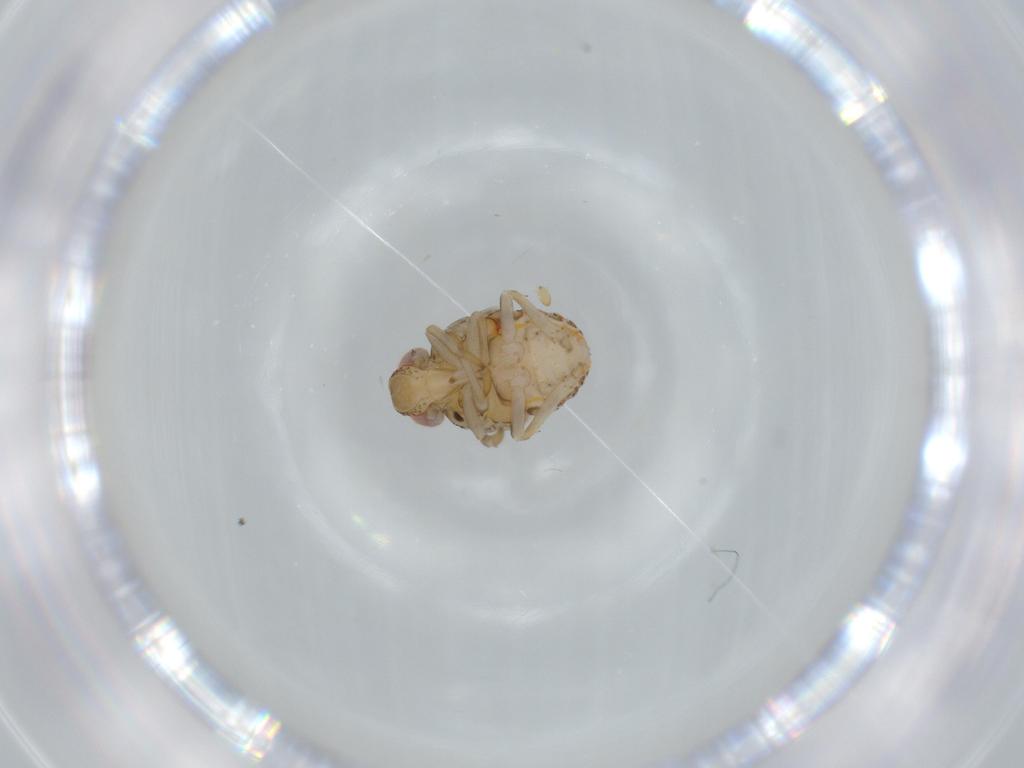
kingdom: Animalia
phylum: Arthropoda
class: Insecta
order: Hemiptera
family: Issidae
